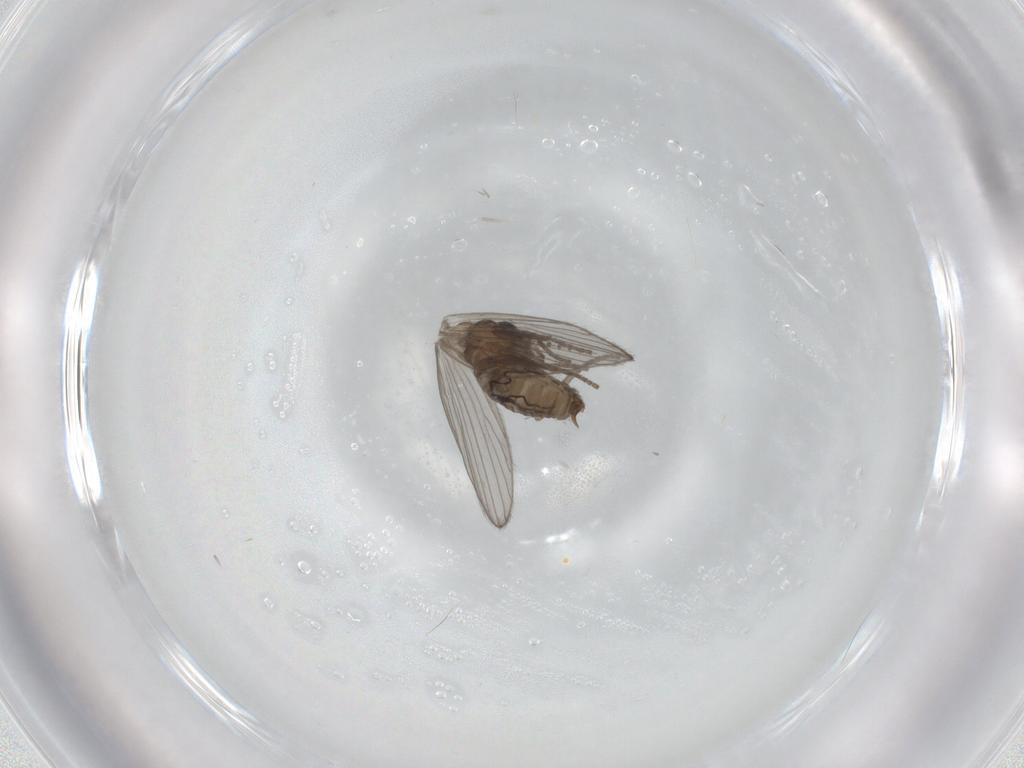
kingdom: Animalia
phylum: Arthropoda
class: Insecta
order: Diptera
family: Psychodidae
